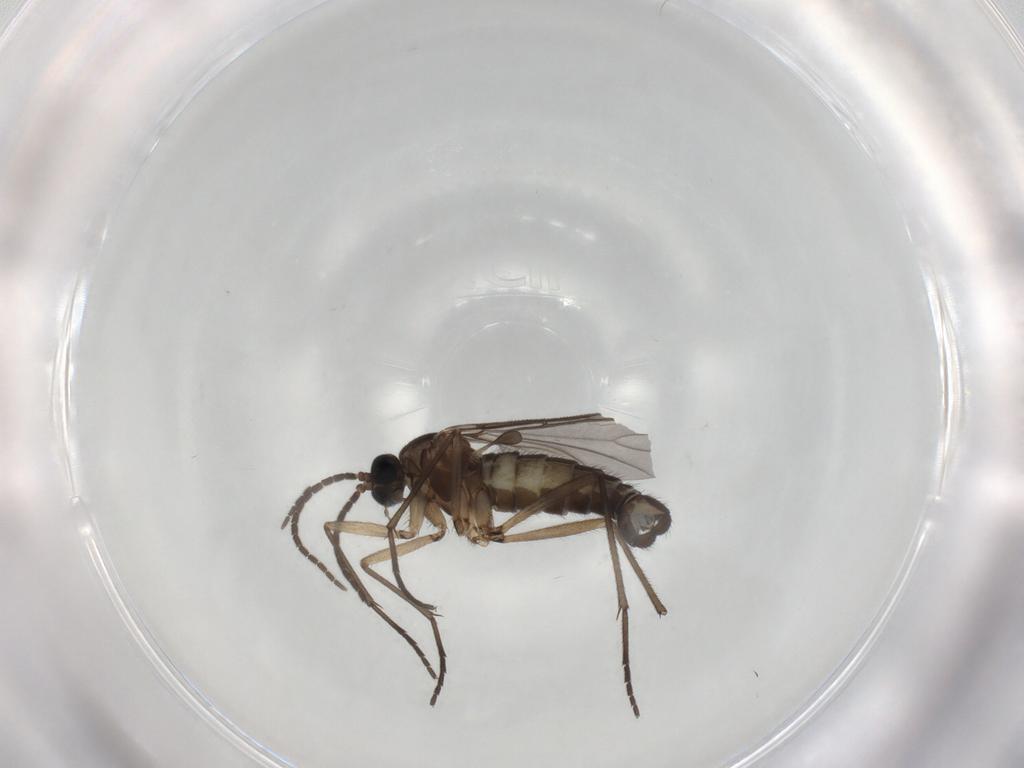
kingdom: Animalia
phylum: Arthropoda
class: Insecta
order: Diptera
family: Sciaridae
